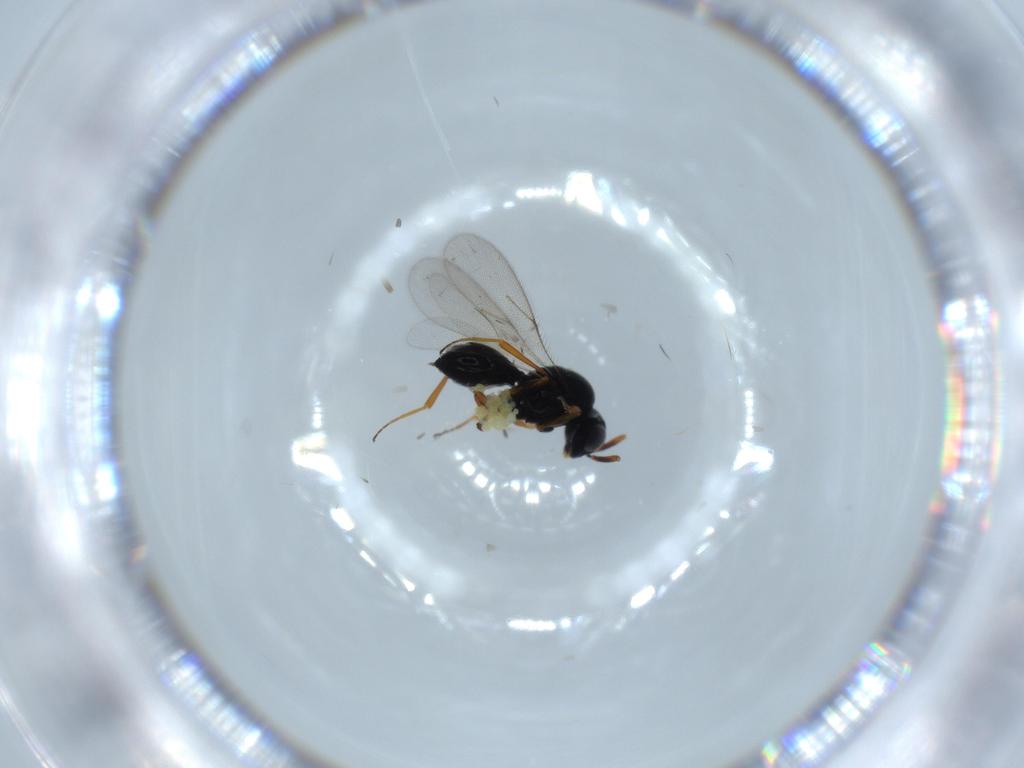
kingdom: Animalia
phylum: Arthropoda
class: Insecta
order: Hymenoptera
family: Scelionidae
